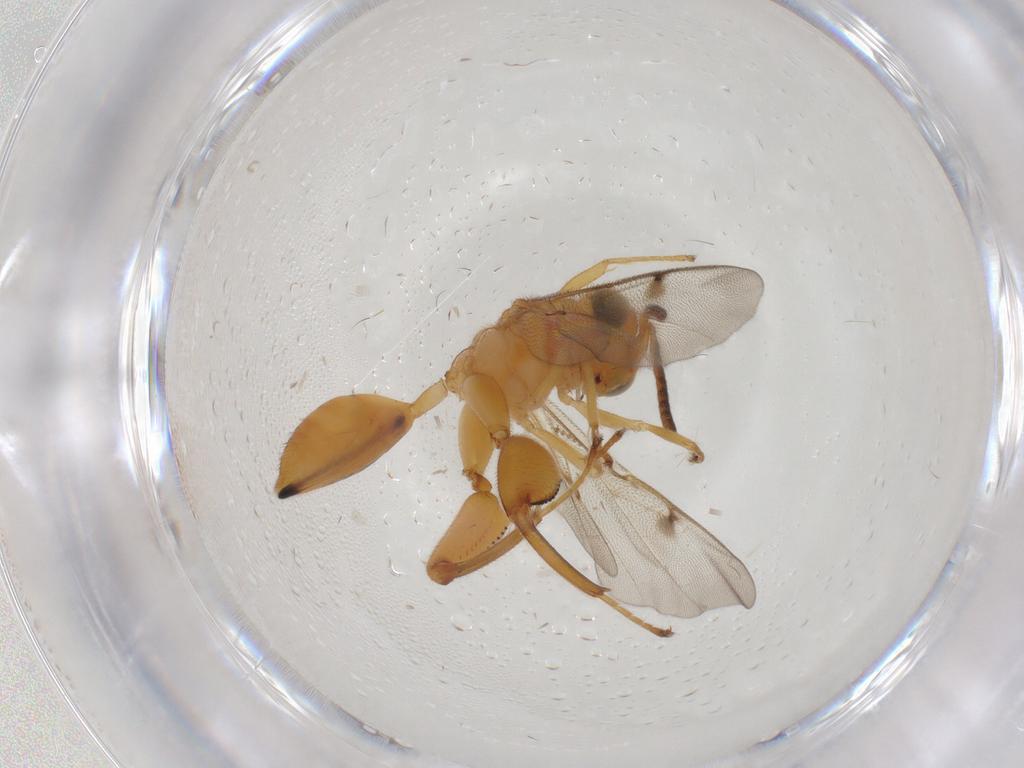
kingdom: Animalia
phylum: Arthropoda
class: Insecta
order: Hymenoptera
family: Chalcididae
